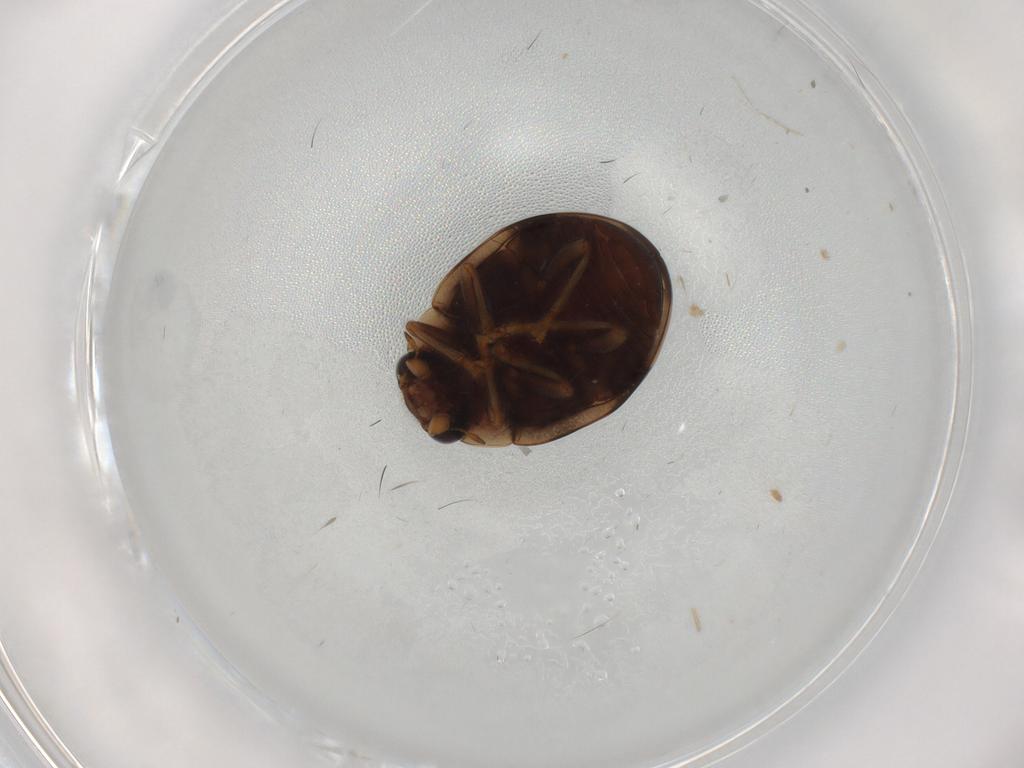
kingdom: Animalia
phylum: Arthropoda
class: Insecta
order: Coleoptera
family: Coccinellidae
